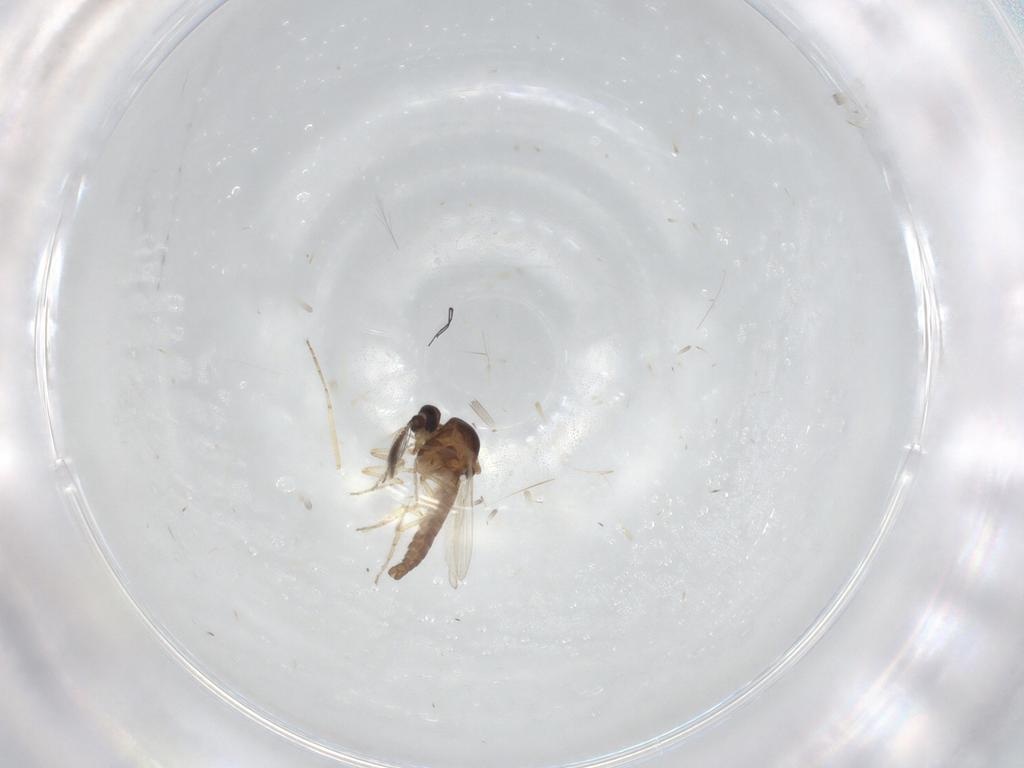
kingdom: Animalia
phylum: Arthropoda
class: Insecta
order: Diptera
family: Ceratopogonidae
